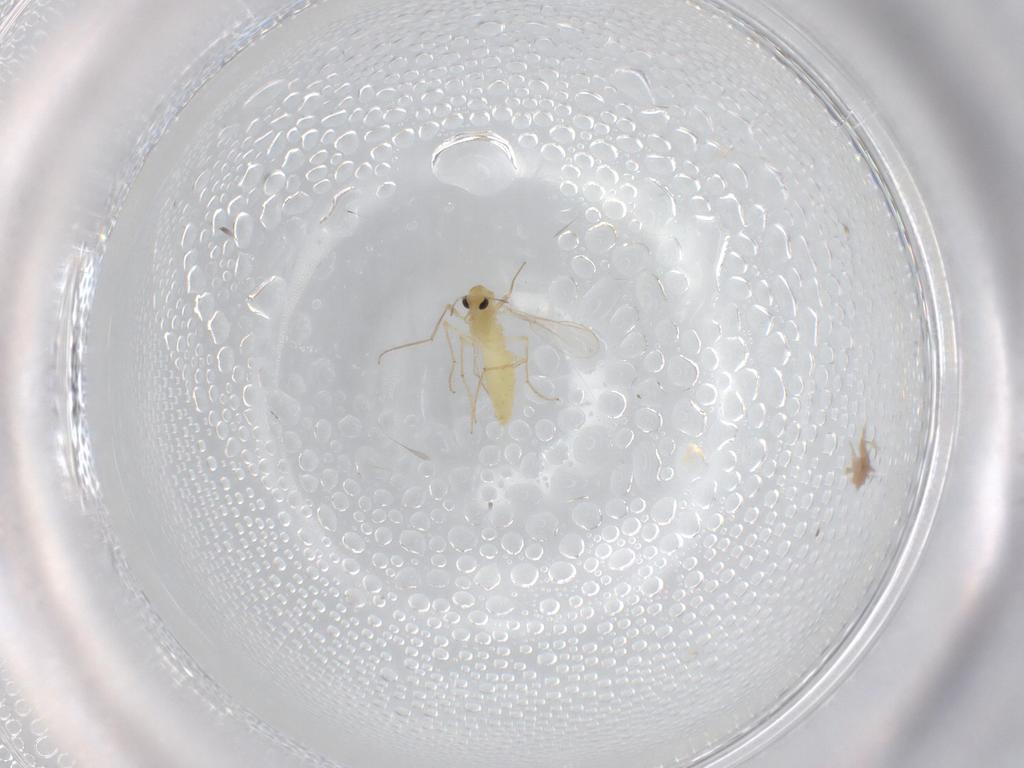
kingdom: Animalia
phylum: Arthropoda
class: Insecta
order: Diptera
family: Chironomidae
